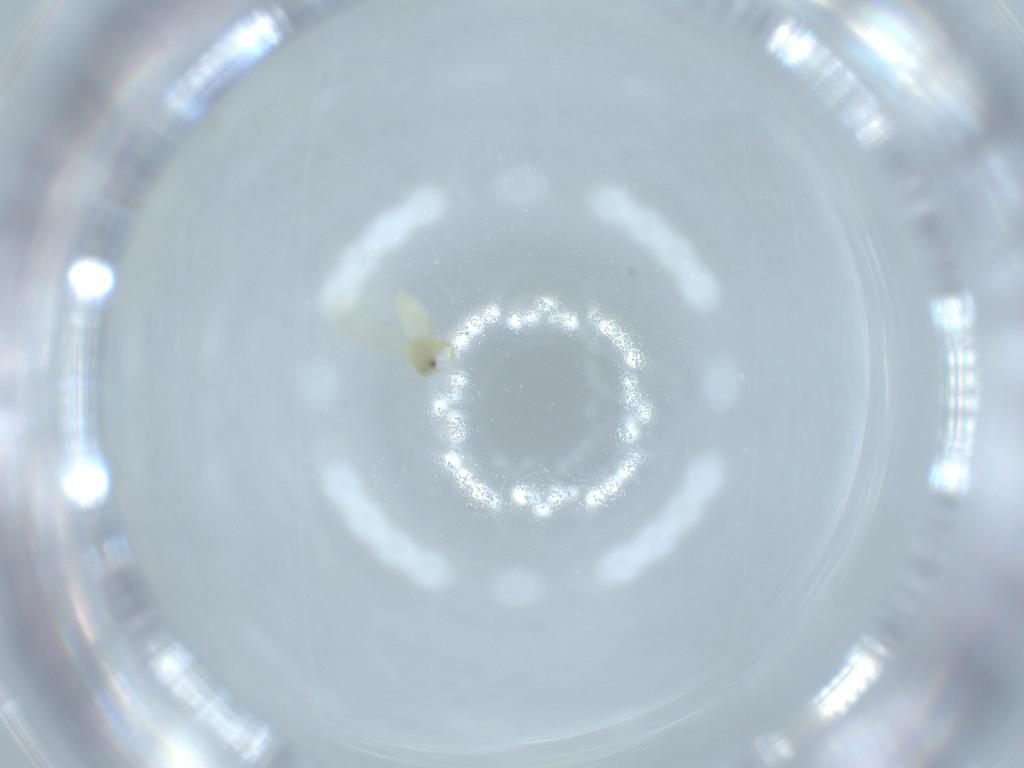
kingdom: Animalia
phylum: Arthropoda
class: Insecta
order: Hemiptera
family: Aleyrodidae
